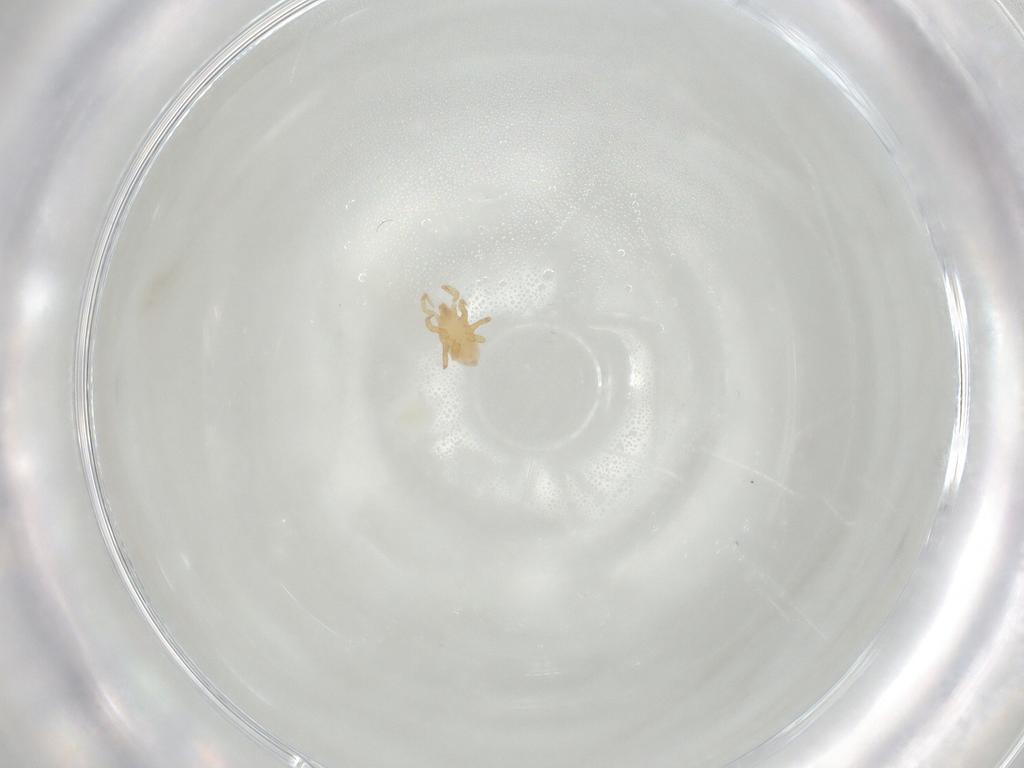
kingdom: Animalia
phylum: Arthropoda
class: Arachnida
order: Mesostigmata
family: Parasitidae
